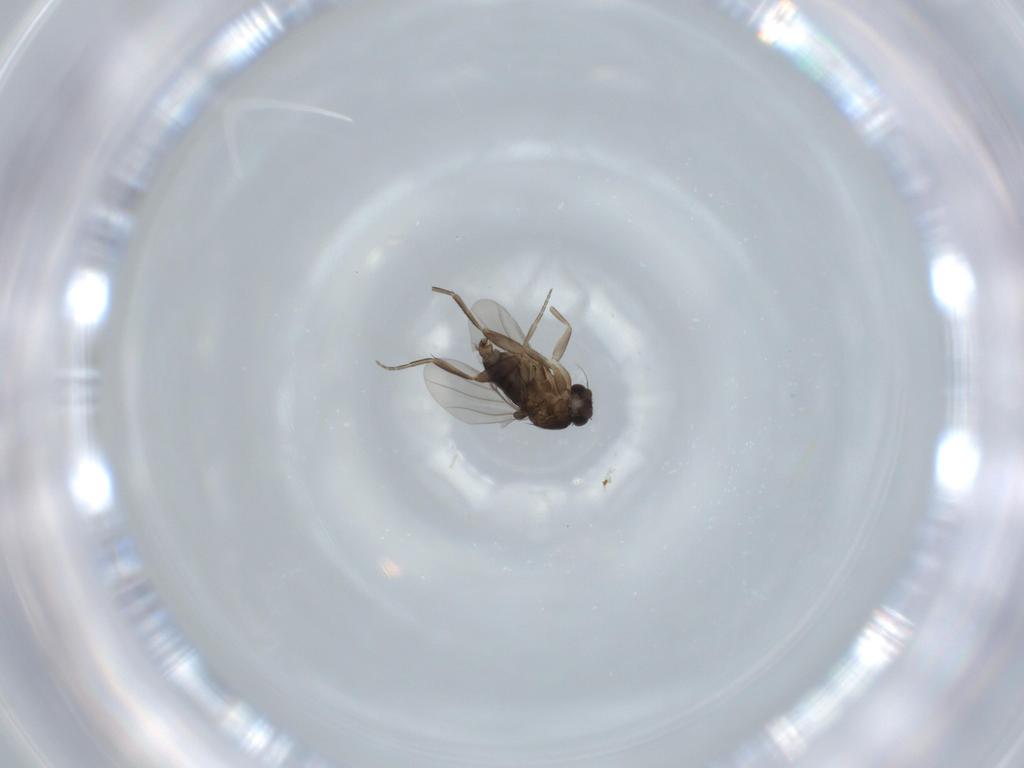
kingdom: Animalia
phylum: Arthropoda
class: Insecta
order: Diptera
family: Phoridae
